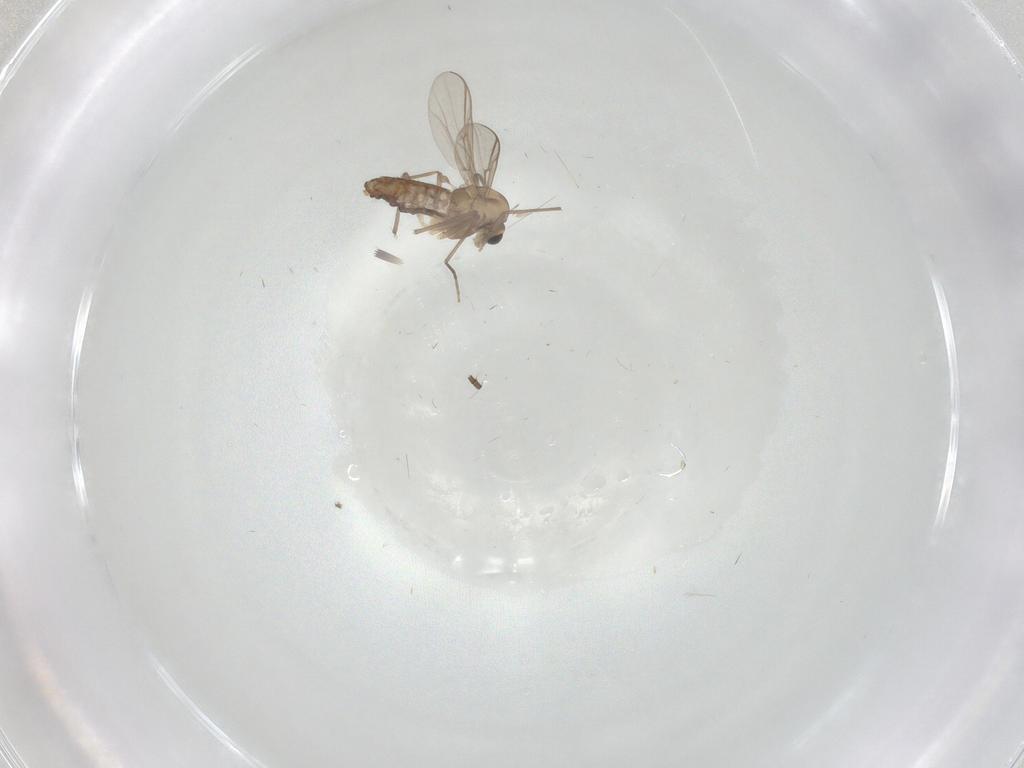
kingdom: Animalia
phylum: Arthropoda
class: Insecta
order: Diptera
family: Chironomidae
